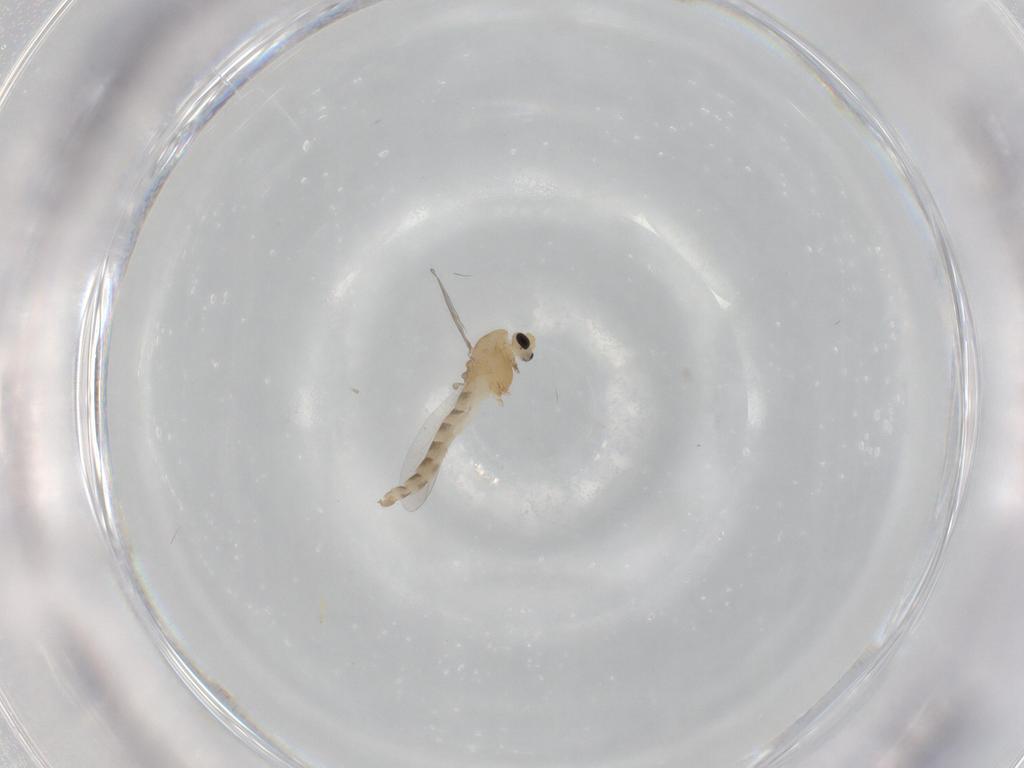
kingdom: Animalia
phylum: Arthropoda
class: Insecta
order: Diptera
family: Chironomidae
